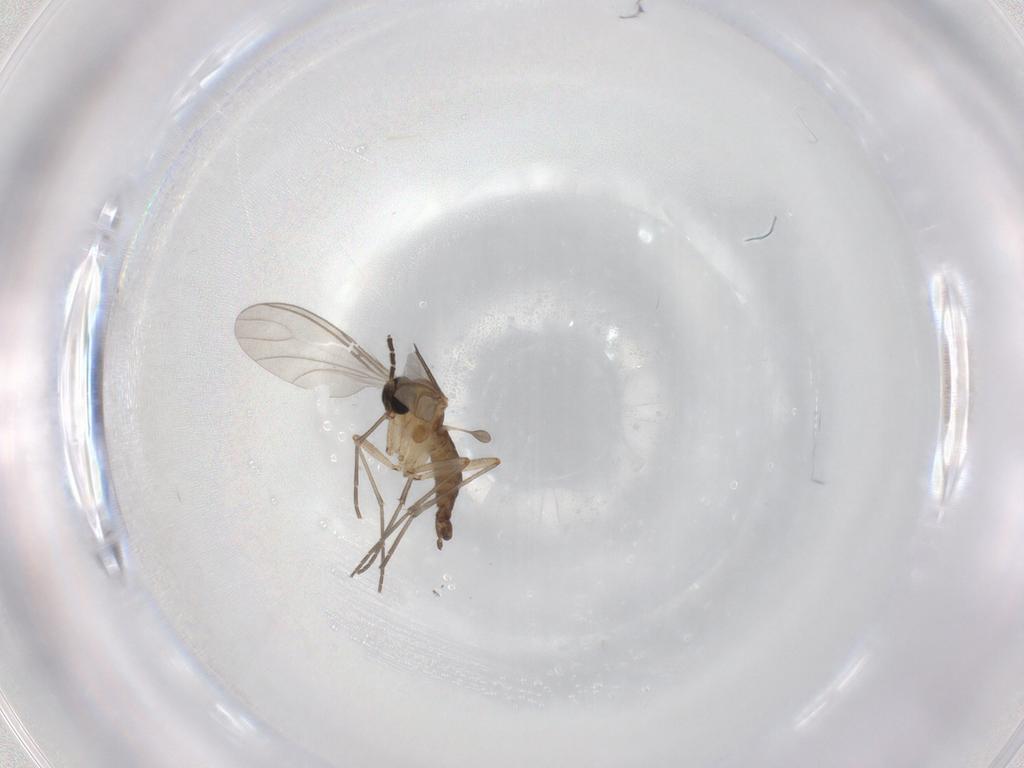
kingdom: Animalia
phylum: Arthropoda
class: Insecta
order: Diptera
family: Sciaridae
